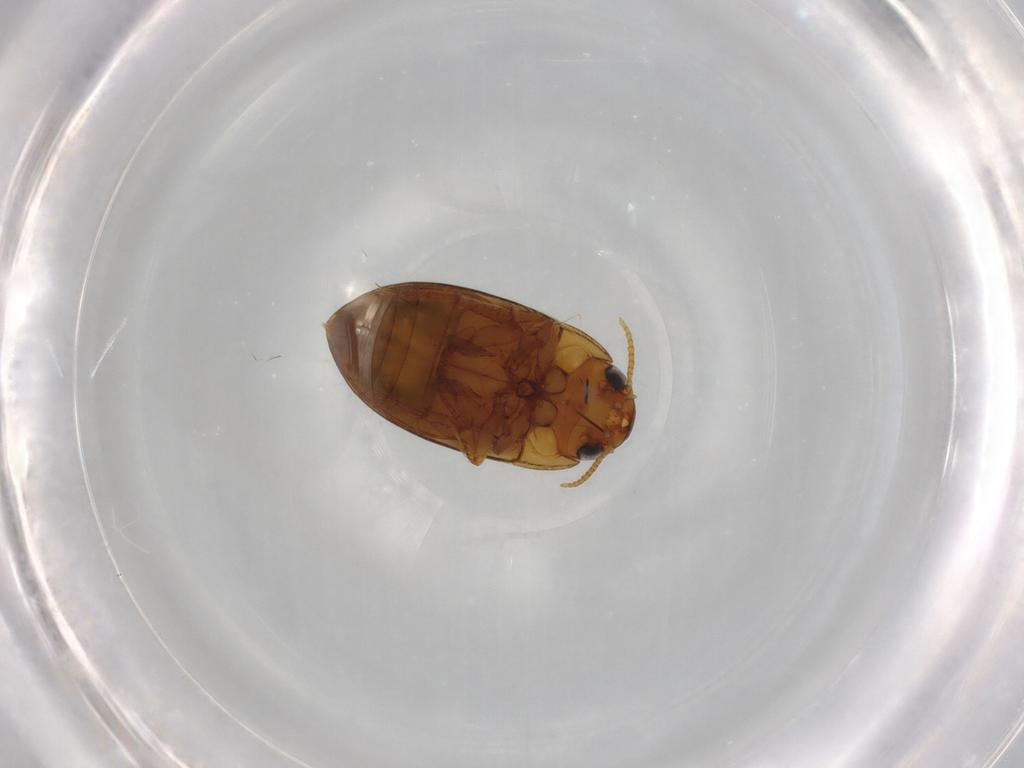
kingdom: Animalia
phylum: Arthropoda
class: Insecta
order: Coleoptera
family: Noteridae
